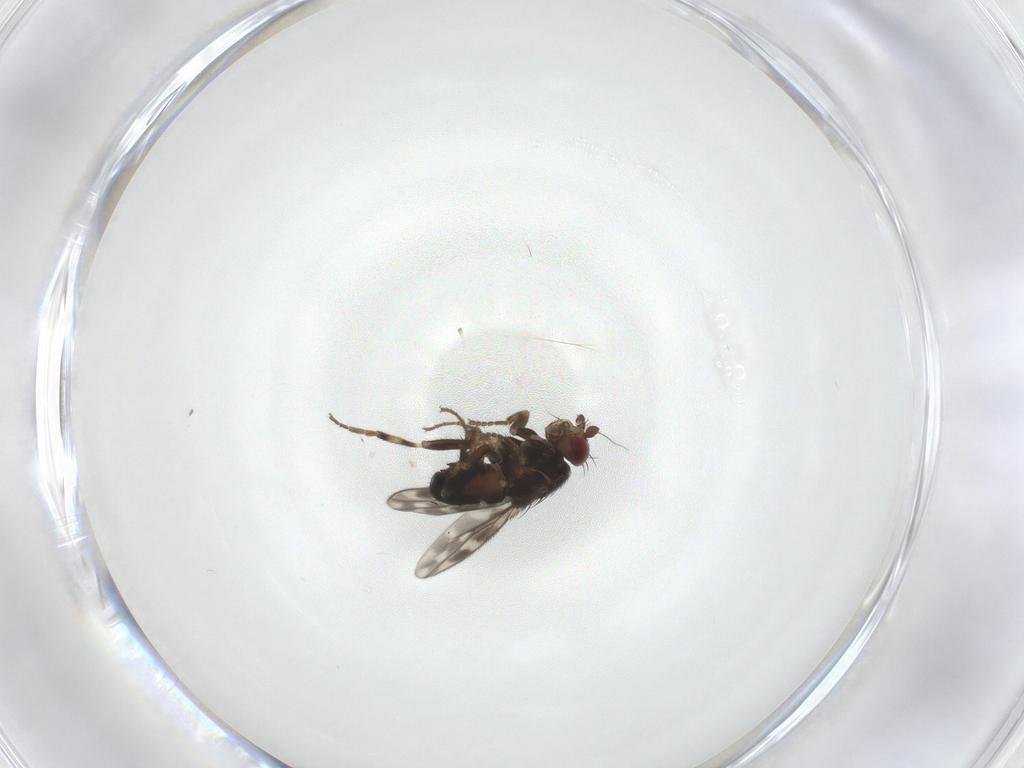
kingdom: Animalia
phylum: Arthropoda
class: Insecta
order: Diptera
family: Sphaeroceridae
